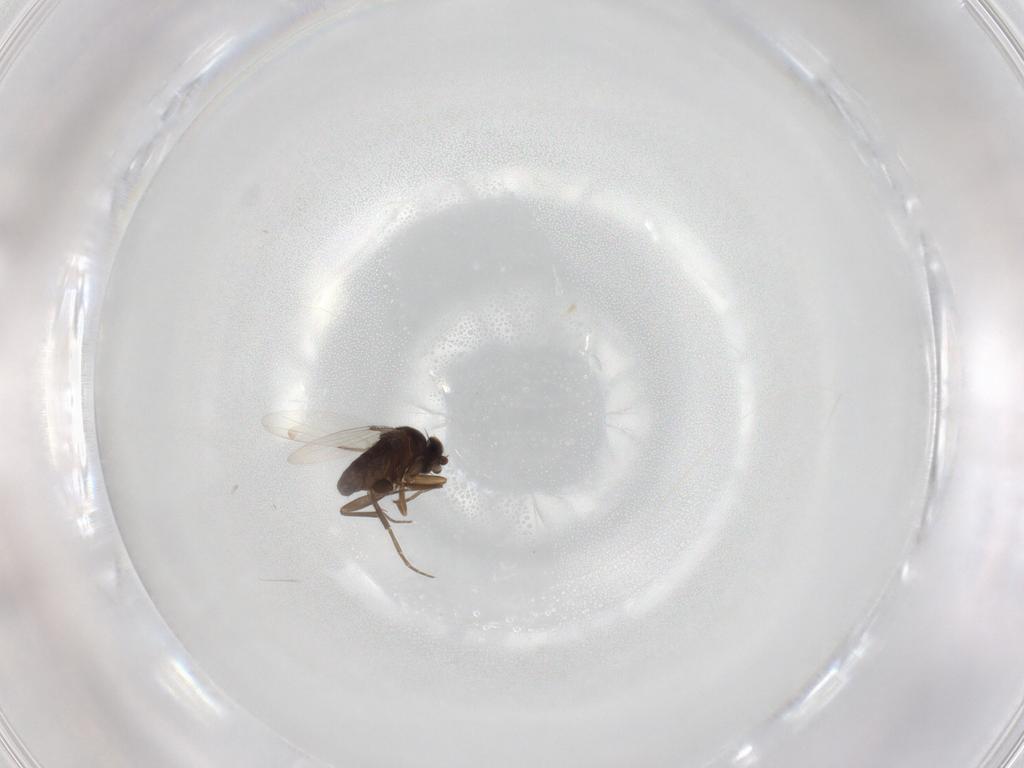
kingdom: Animalia
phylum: Arthropoda
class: Insecta
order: Diptera
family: Phoridae
